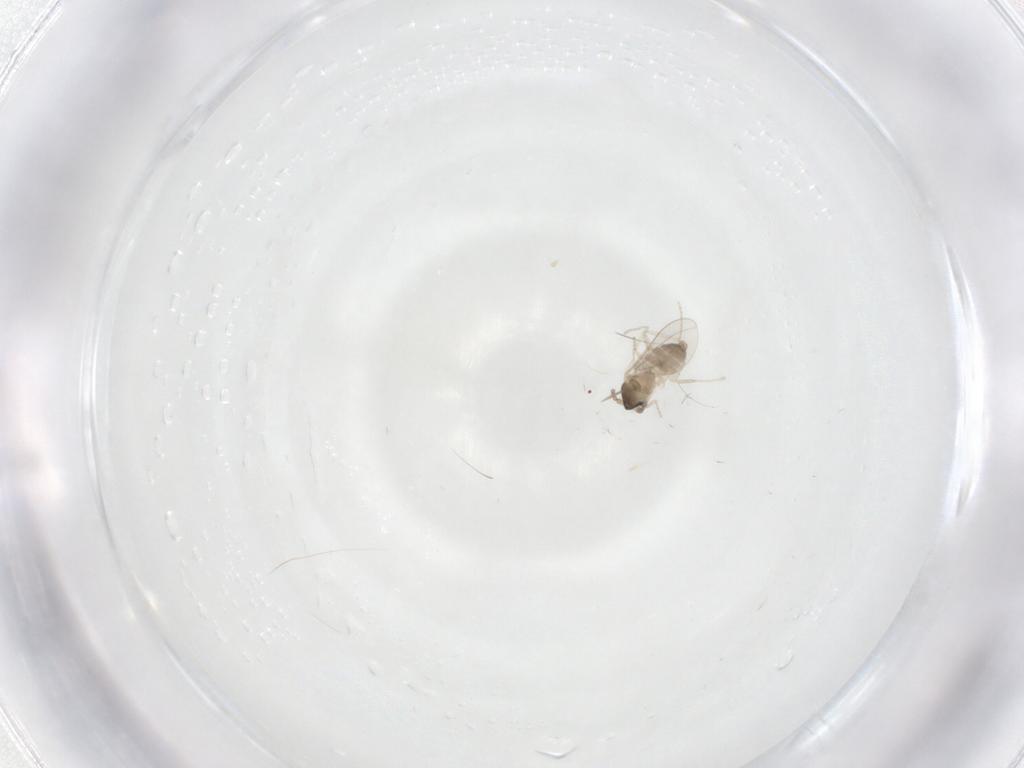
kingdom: Animalia
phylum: Arthropoda
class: Insecta
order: Diptera
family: Cecidomyiidae
